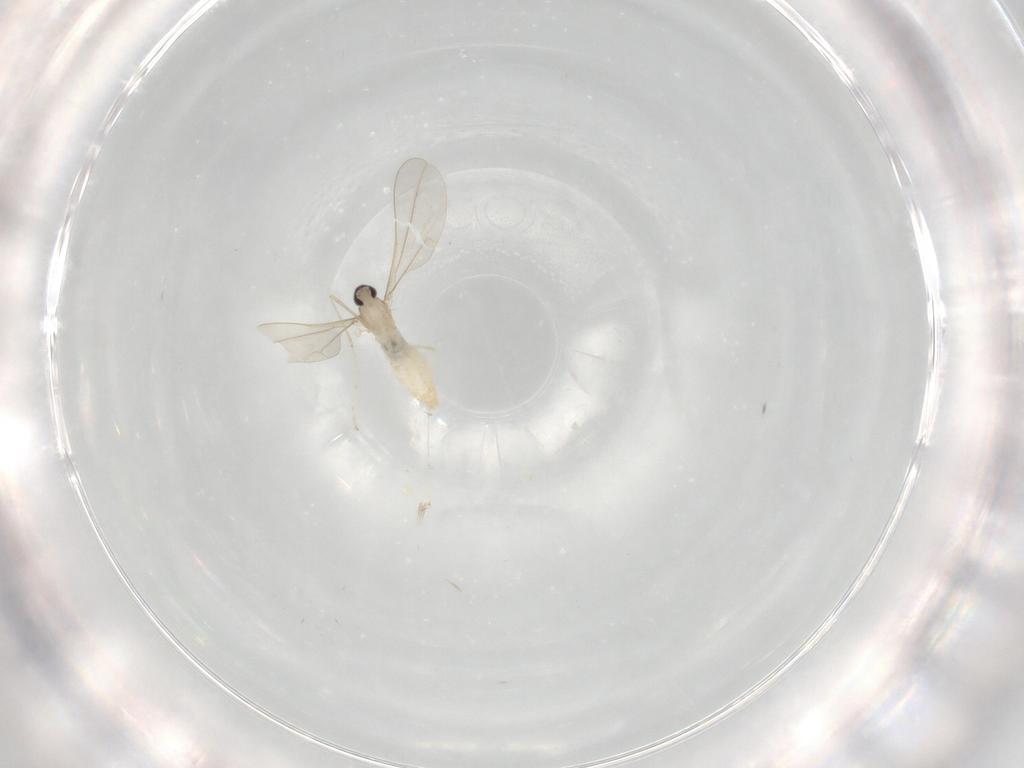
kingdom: Animalia
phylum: Arthropoda
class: Insecta
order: Diptera
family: Cecidomyiidae
